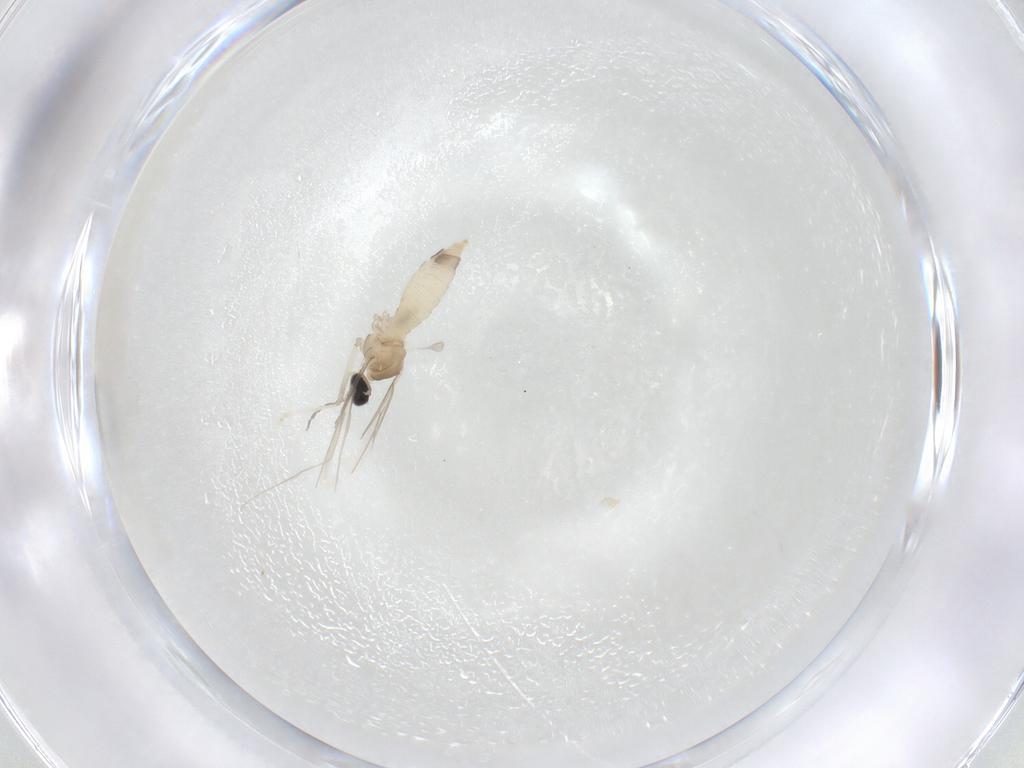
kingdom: Animalia
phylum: Arthropoda
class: Insecta
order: Diptera
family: Cecidomyiidae
